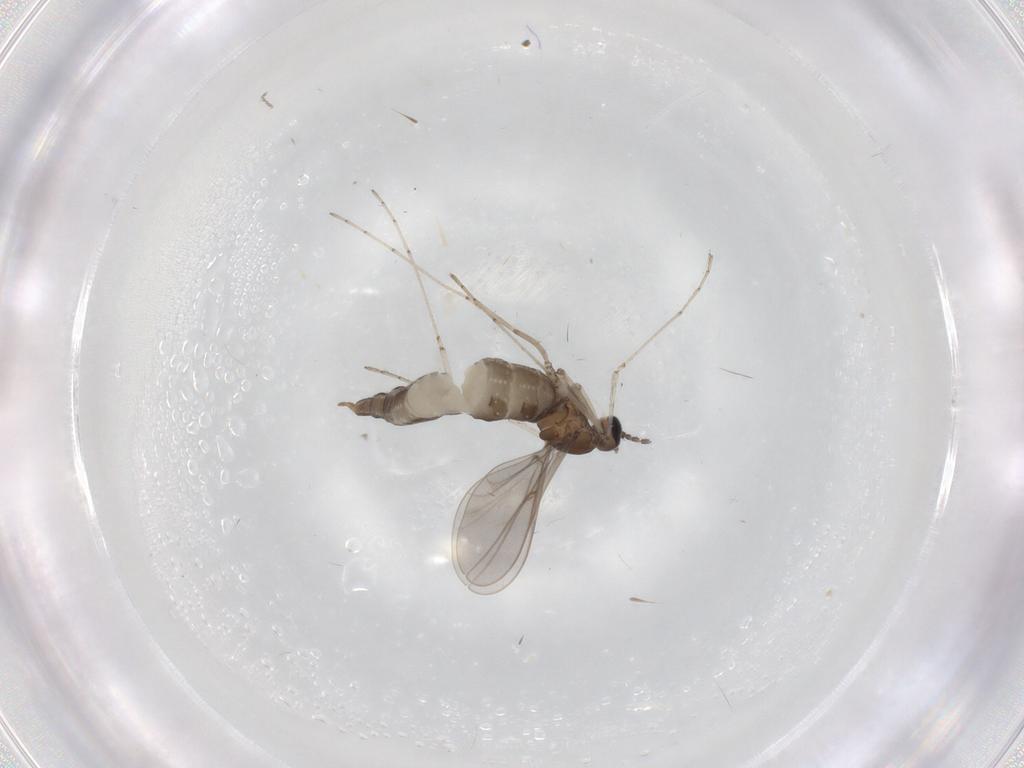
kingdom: Animalia
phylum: Arthropoda
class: Insecta
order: Diptera
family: Cecidomyiidae
